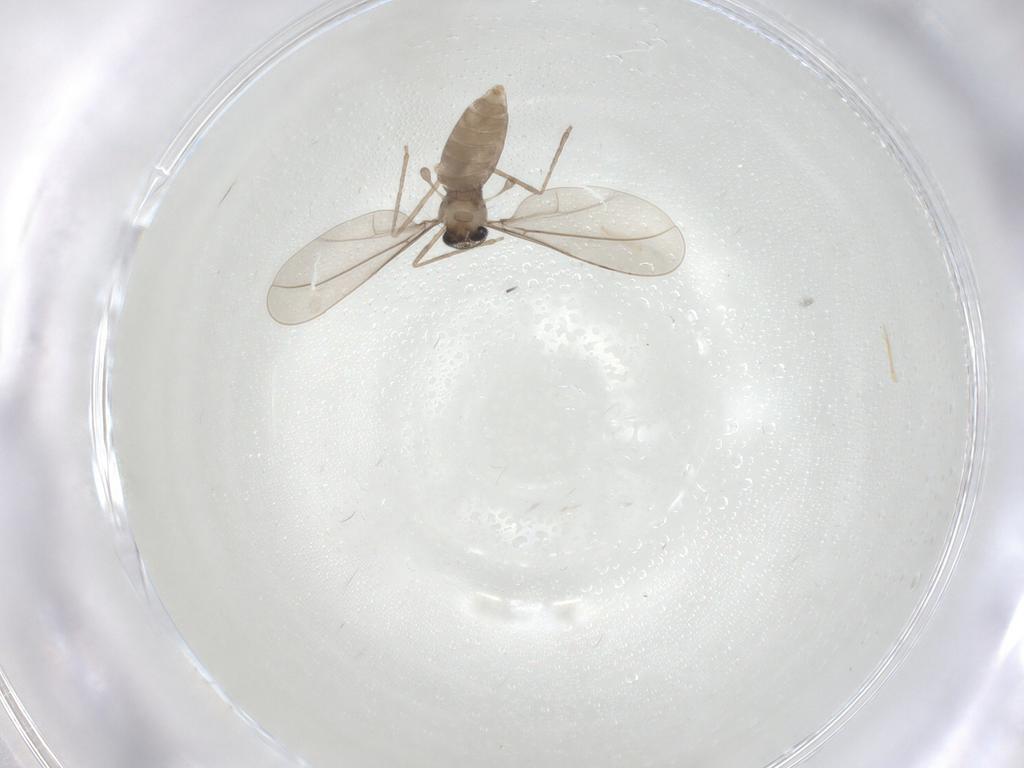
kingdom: Animalia
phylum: Arthropoda
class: Insecta
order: Diptera
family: Cecidomyiidae
